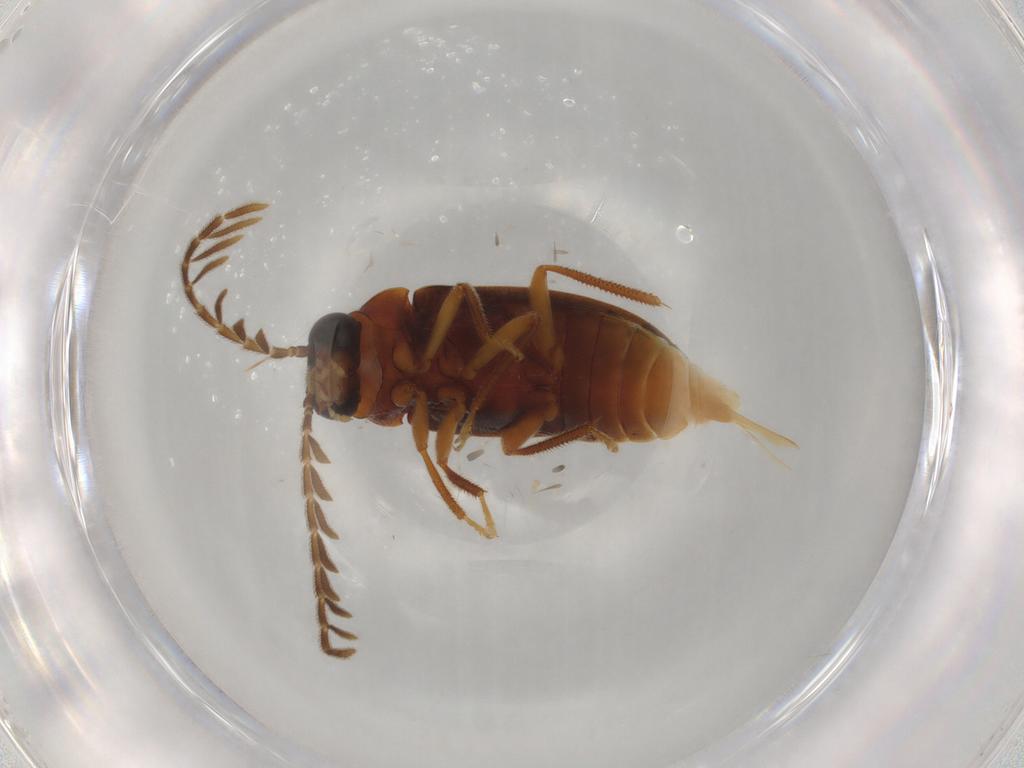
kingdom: Animalia
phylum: Arthropoda
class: Insecta
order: Coleoptera
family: Ptilodactylidae
